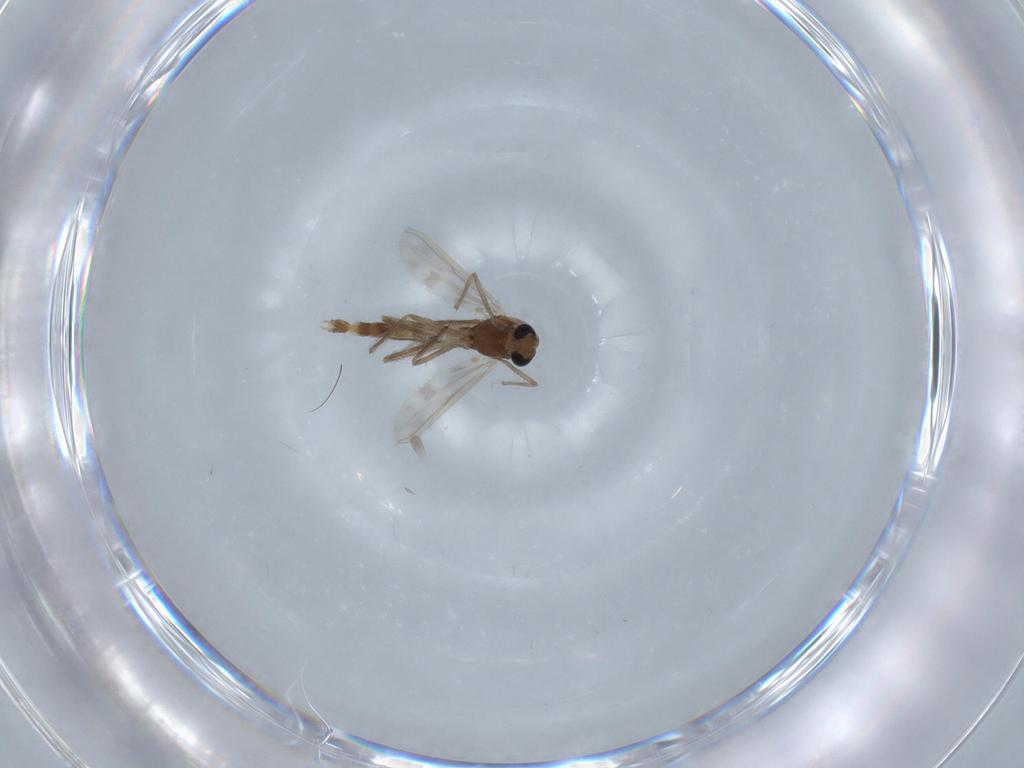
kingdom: Animalia
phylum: Arthropoda
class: Insecta
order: Diptera
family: Chironomidae
